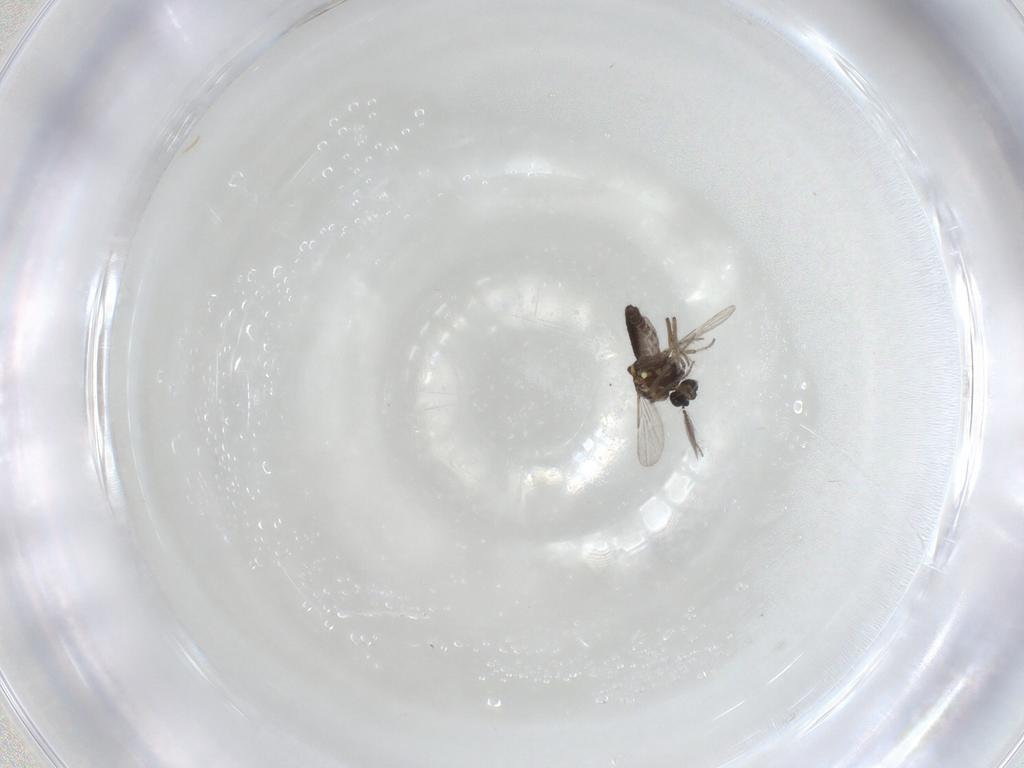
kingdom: Animalia
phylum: Arthropoda
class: Insecta
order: Diptera
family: Ceratopogonidae
